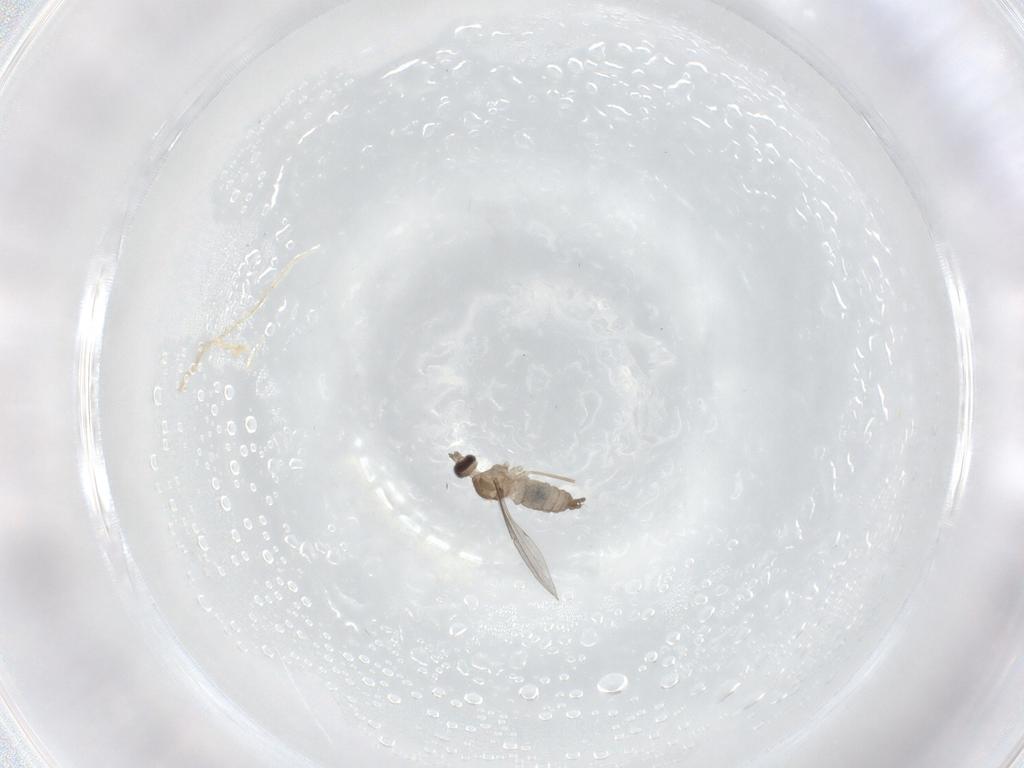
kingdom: Animalia
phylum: Arthropoda
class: Insecta
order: Diptera
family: Cecidomyiidae
